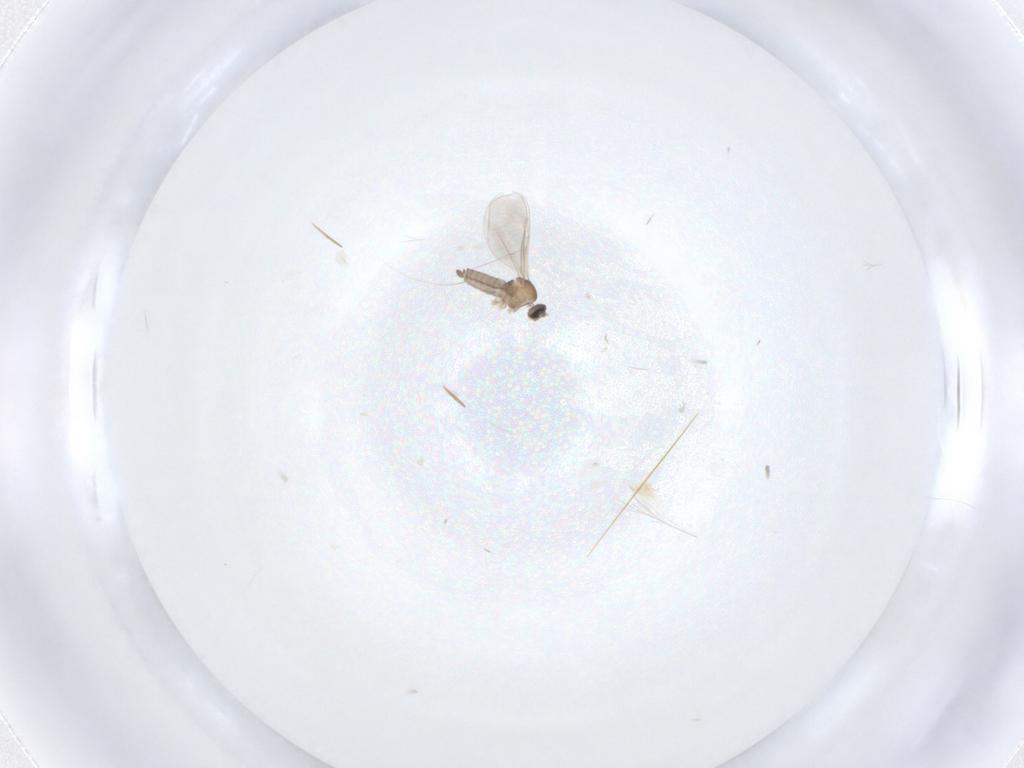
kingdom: Animalia
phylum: Arthropoda
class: Insecta
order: Diptera
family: Cecidomyiidae
